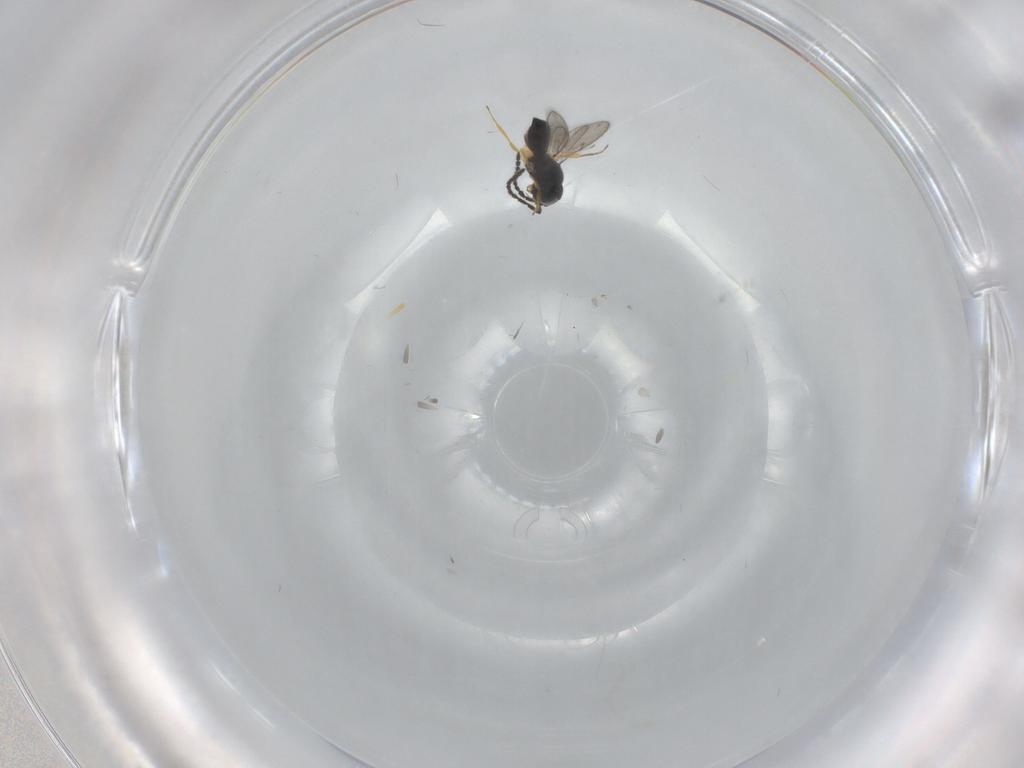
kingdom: Animalia
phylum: Arthropoda
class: Insecta
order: Hymenoptera
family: Scelionidae
